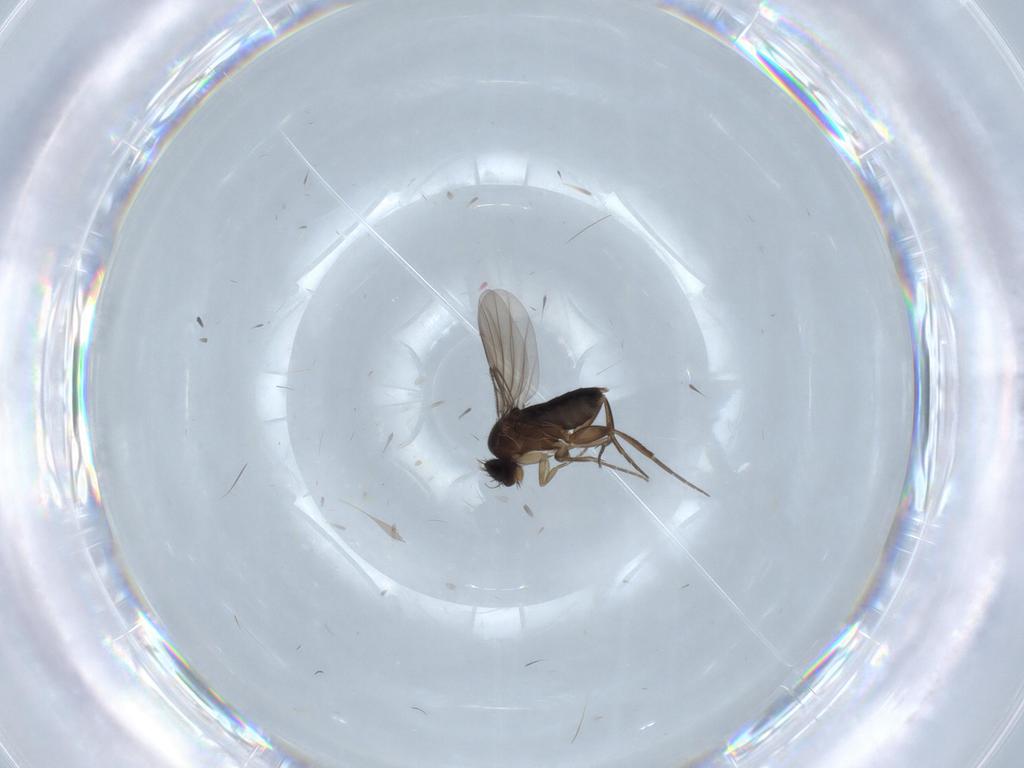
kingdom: Animalia
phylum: Arthropoda
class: Insecta
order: Diptera
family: Phoridae
